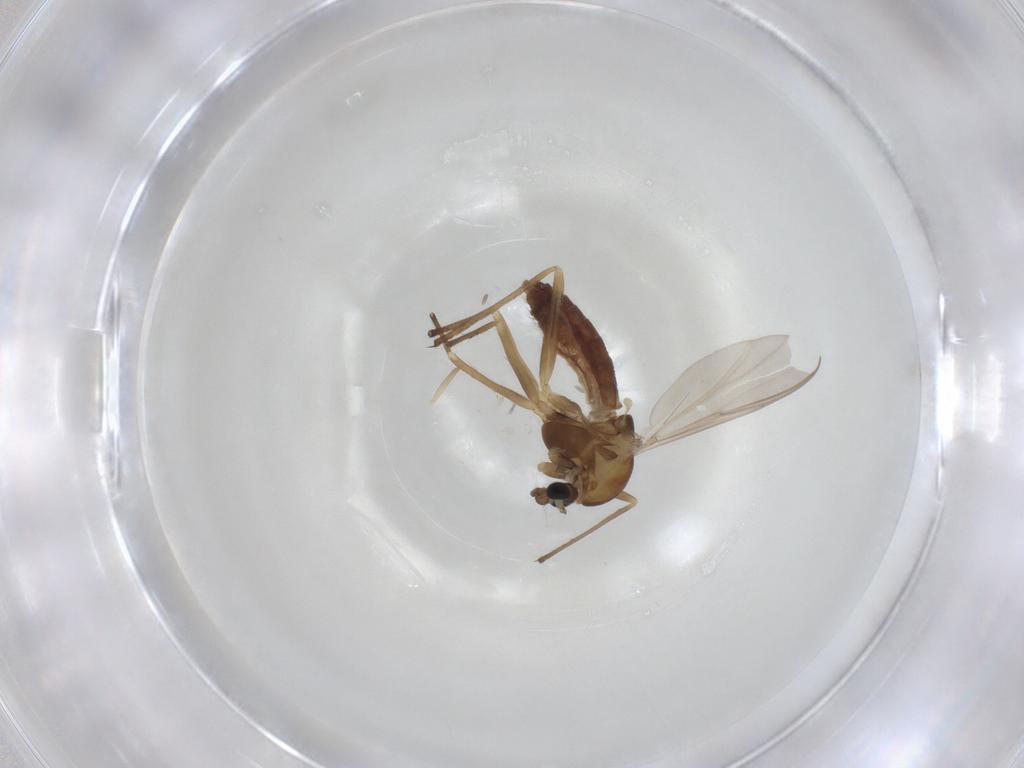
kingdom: Animalia
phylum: Arthropoda
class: Insecta
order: Diptera
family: Chironomidae
